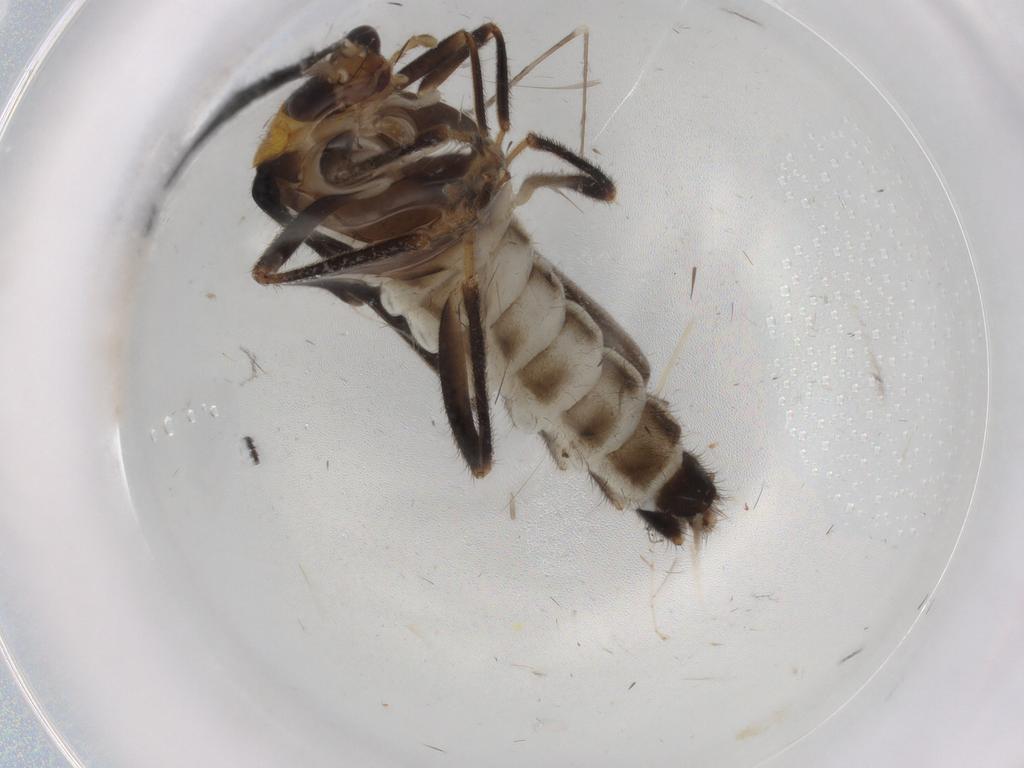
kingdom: Animalia
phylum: Arthropoda
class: Insecta
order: Coleoptera
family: Cantharidae
